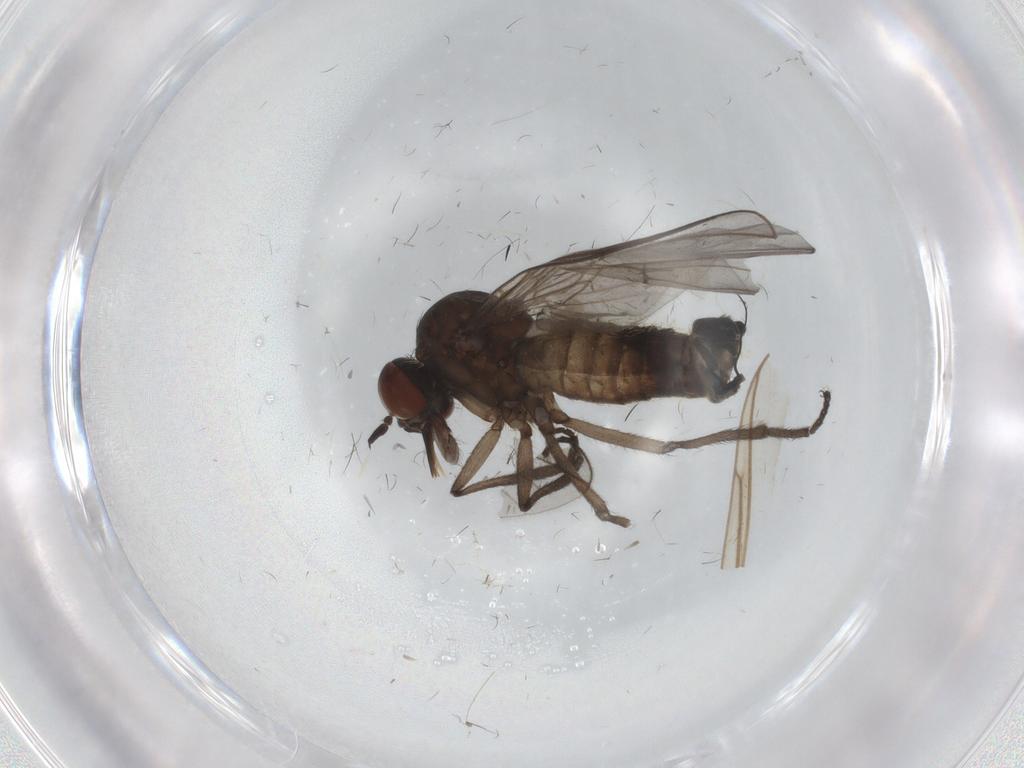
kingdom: Animalia
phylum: Arthropoda
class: Insecta
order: Diptera
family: Empididae
